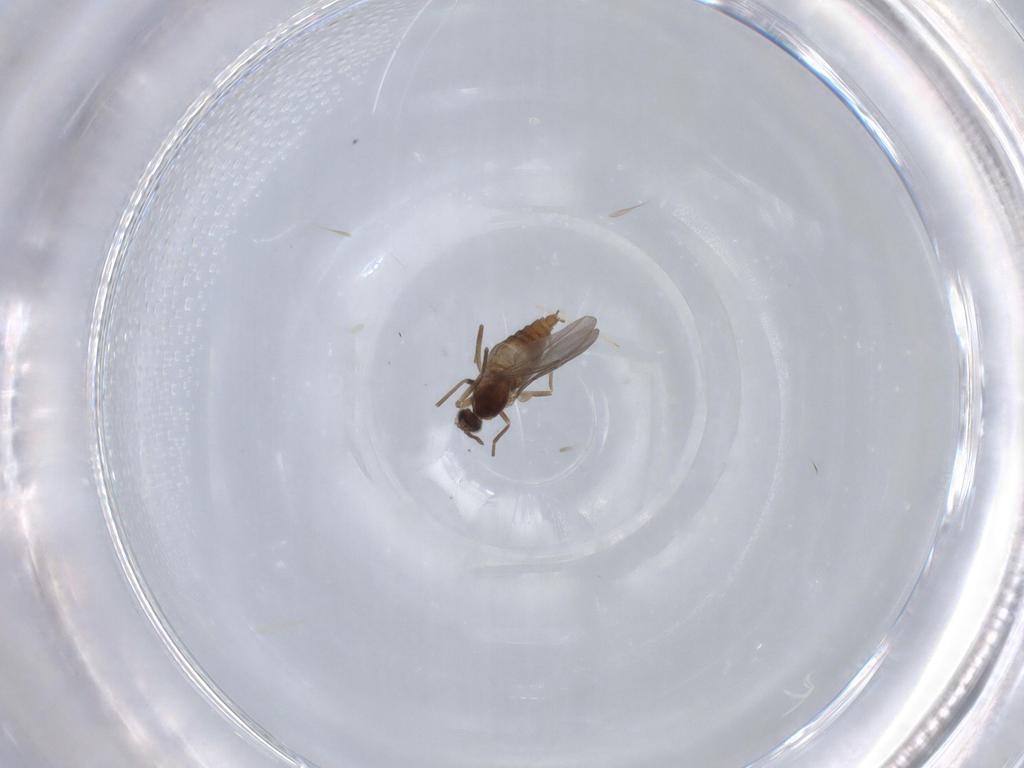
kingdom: Animalia
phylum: Arthropoda
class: Insecta
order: Diptera
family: Cecidomyiidae
